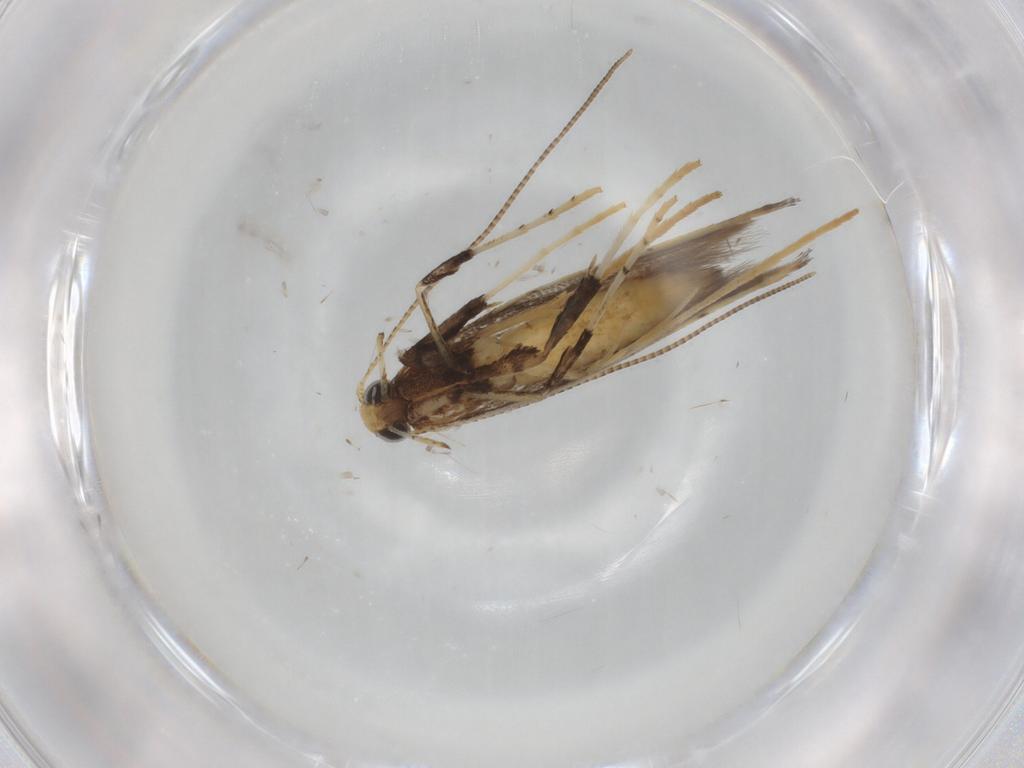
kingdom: Animalia
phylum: Arthropoda
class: Insecta
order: Lepidoptera
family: Gracillariidae
